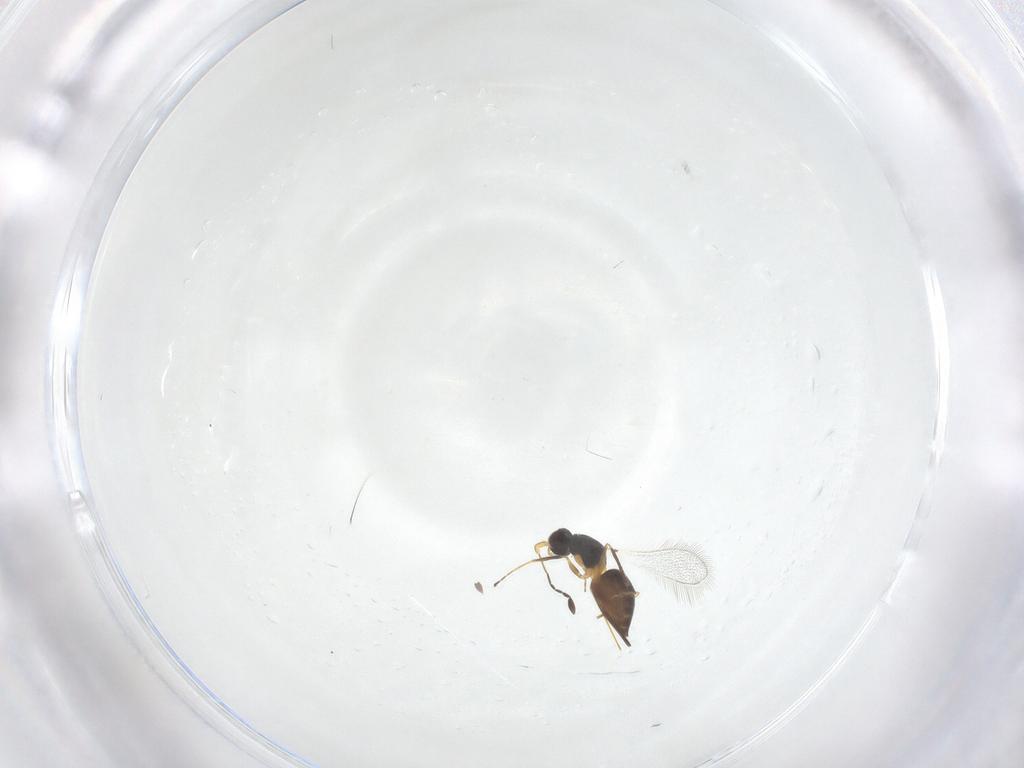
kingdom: Animalia
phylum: Arthropoda
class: Insecta
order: Hymenoptera
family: Mymaridae
